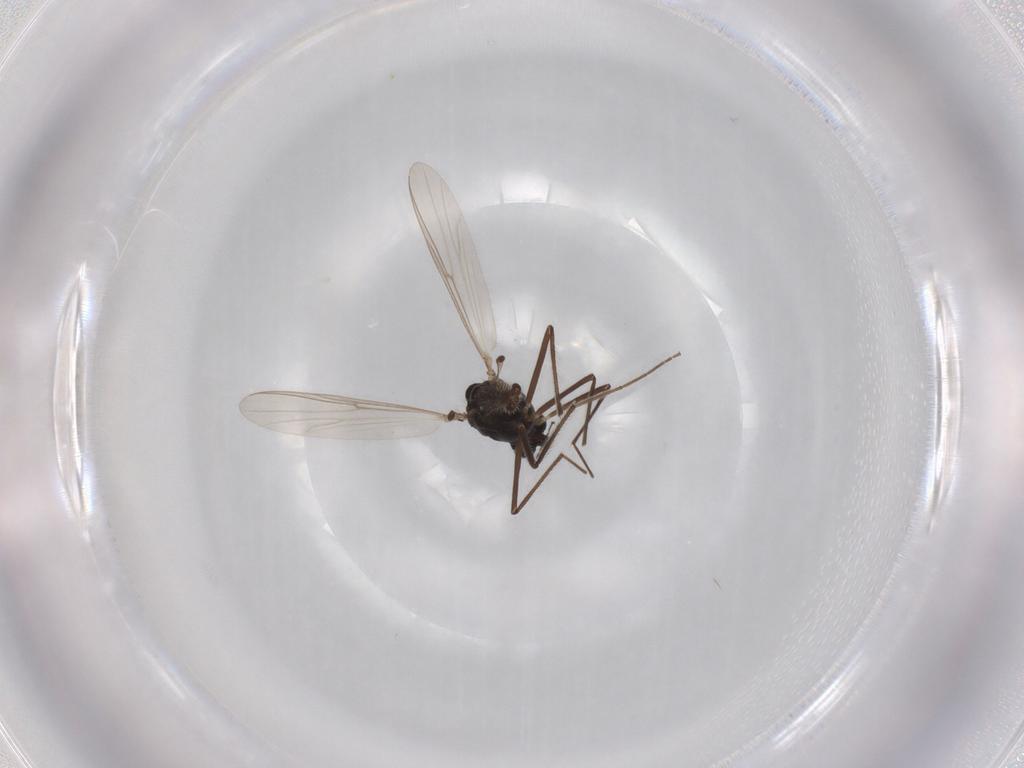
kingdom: Animalia
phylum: Arthropoda
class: Insecta
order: Diptera
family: Chironomidae
